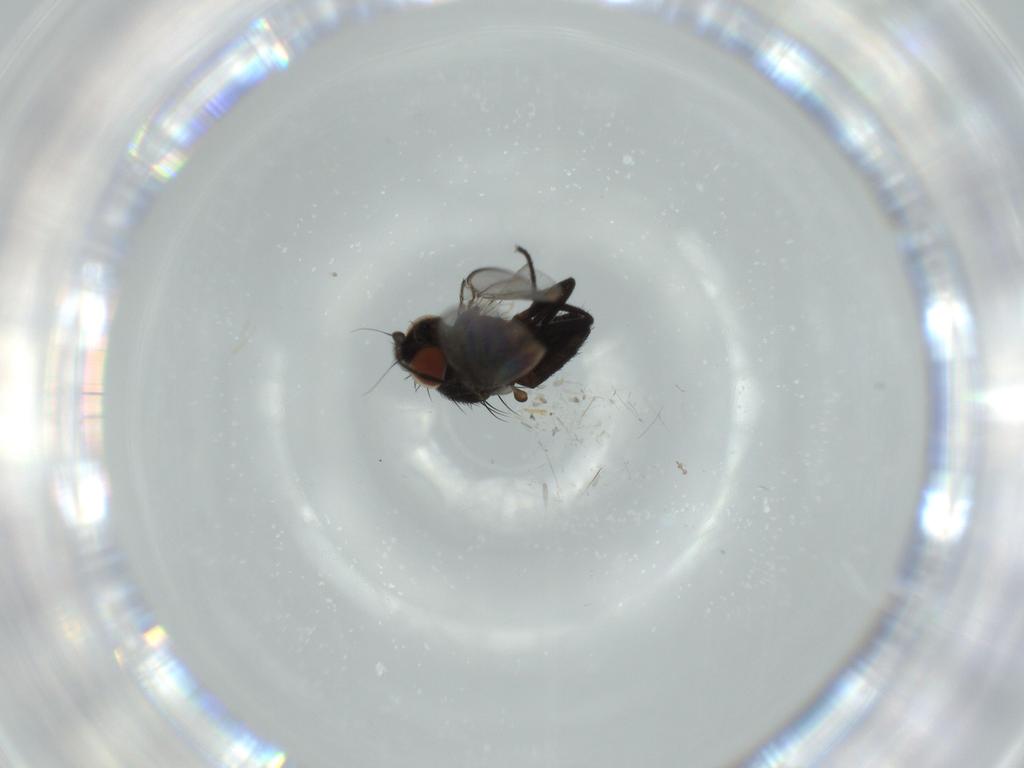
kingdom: Animalia
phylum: Arthropoda
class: Insecta
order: Diptera
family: Milichiidae
